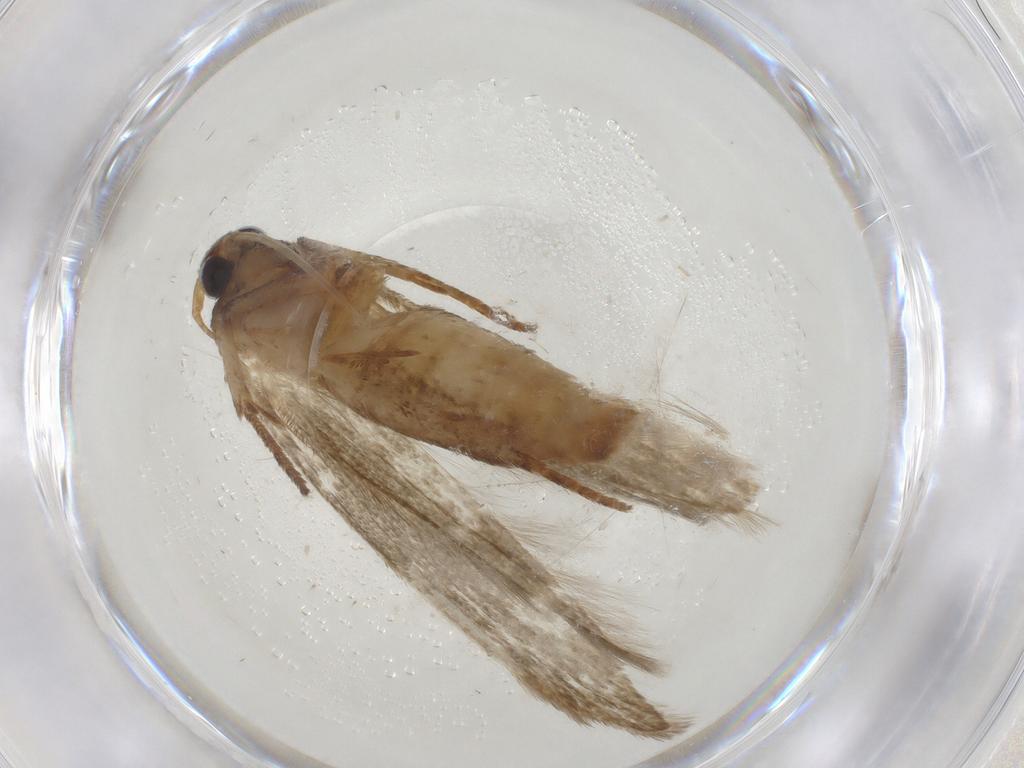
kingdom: Animalia
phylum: Arthropoda
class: Insecta
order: Lepidoptera
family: Blastobasidae
